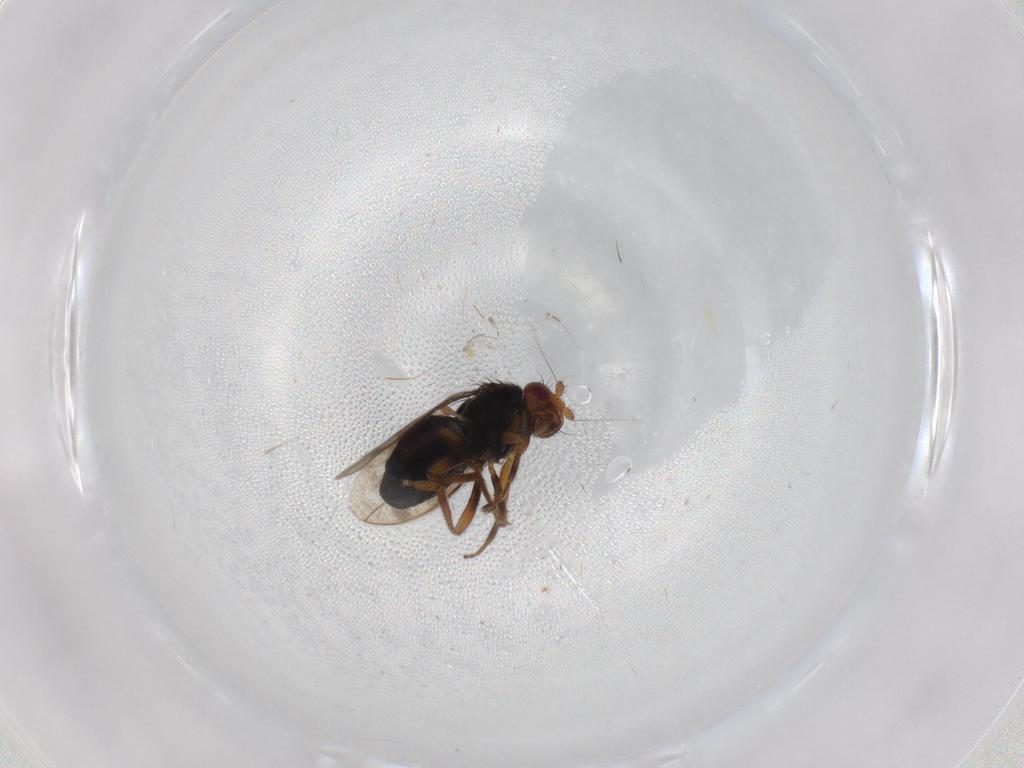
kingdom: Animalia
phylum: Arthropoda
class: Insecta
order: Diptera
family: Sphaeroceridae
